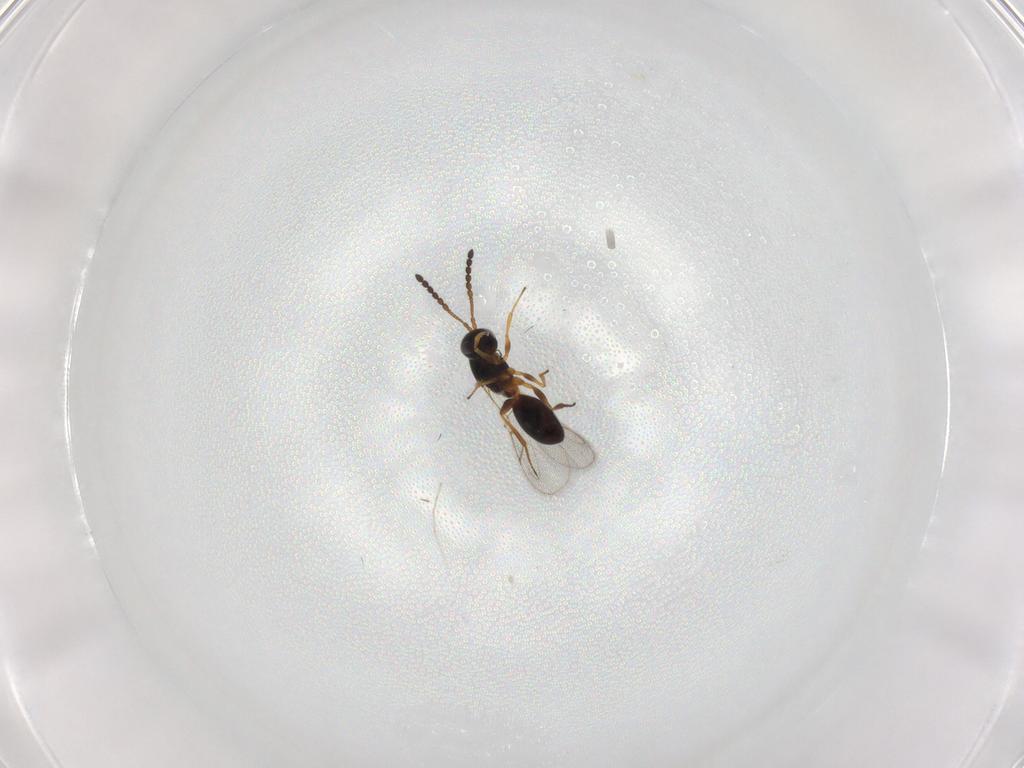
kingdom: Animalia
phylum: Arthropoda
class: Insecta
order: Hymenoptera
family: Figitidae
